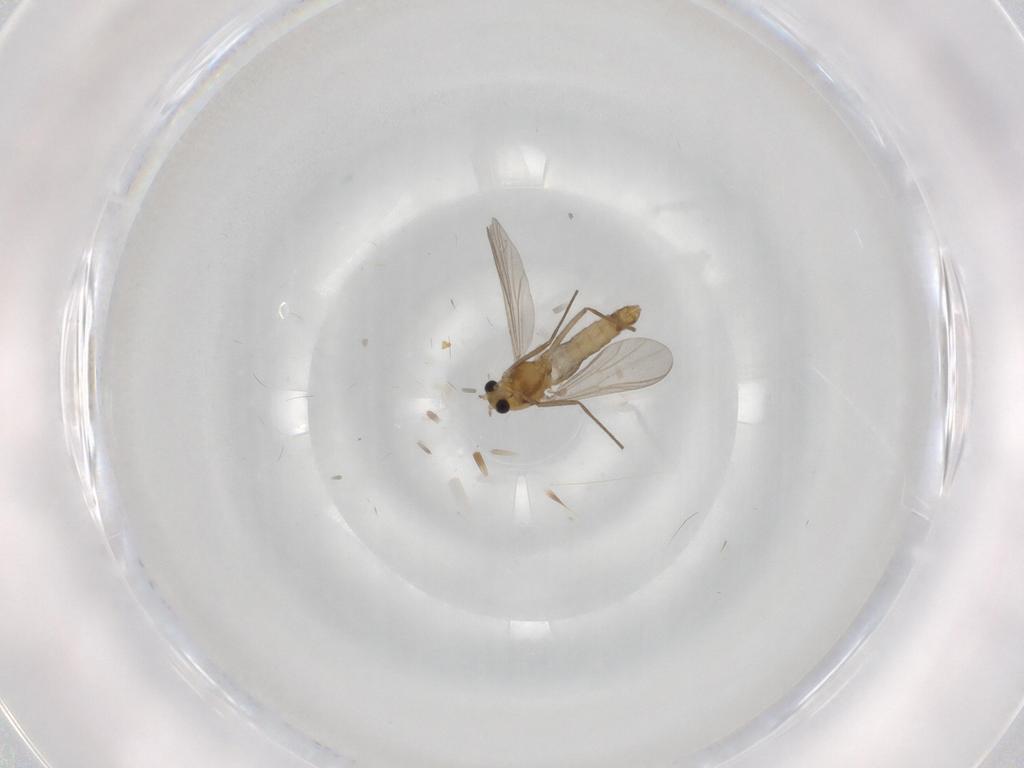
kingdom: Animalia
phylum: Arthropoda
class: Insecta
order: Diptera
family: Chironomidae
